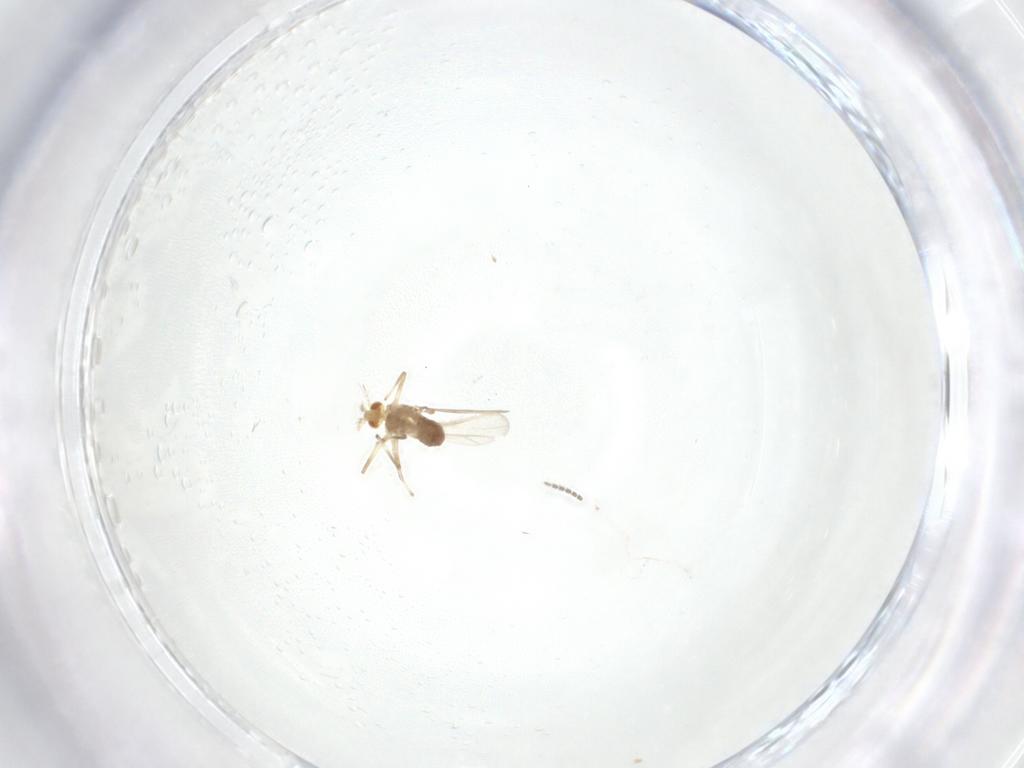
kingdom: Animalia
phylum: Arthropoda
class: Insecta
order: Diptera
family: Sciaridae
